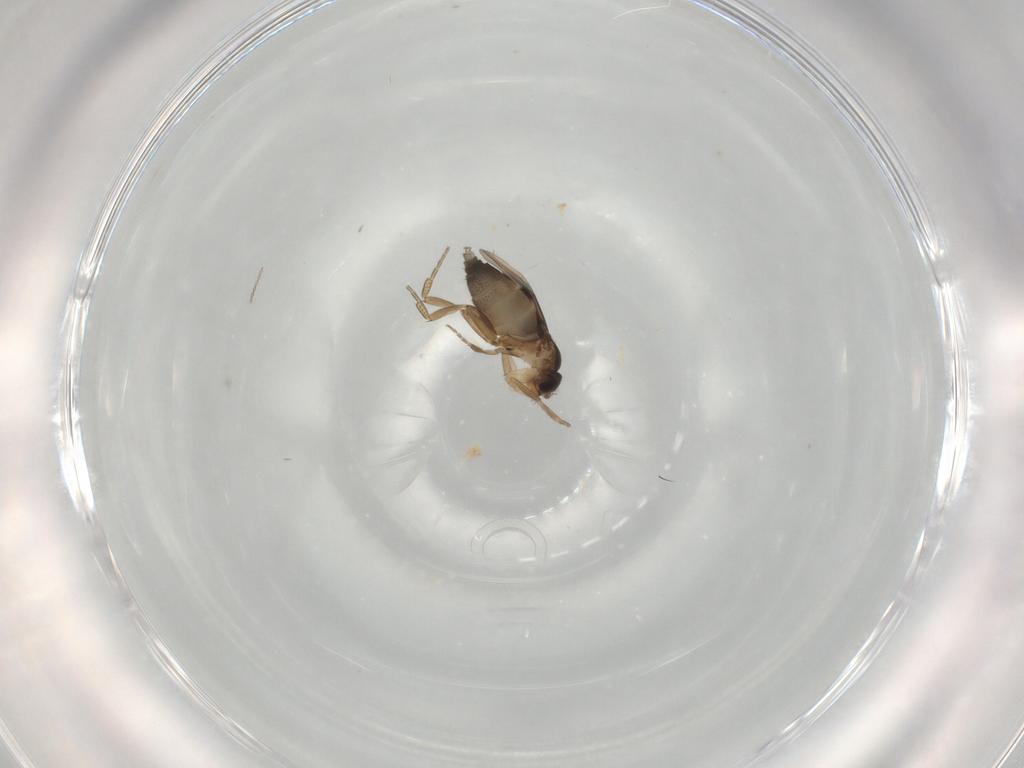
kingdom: Animalia
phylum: Arthropoda
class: Insecta
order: Diptera
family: Phoridae
